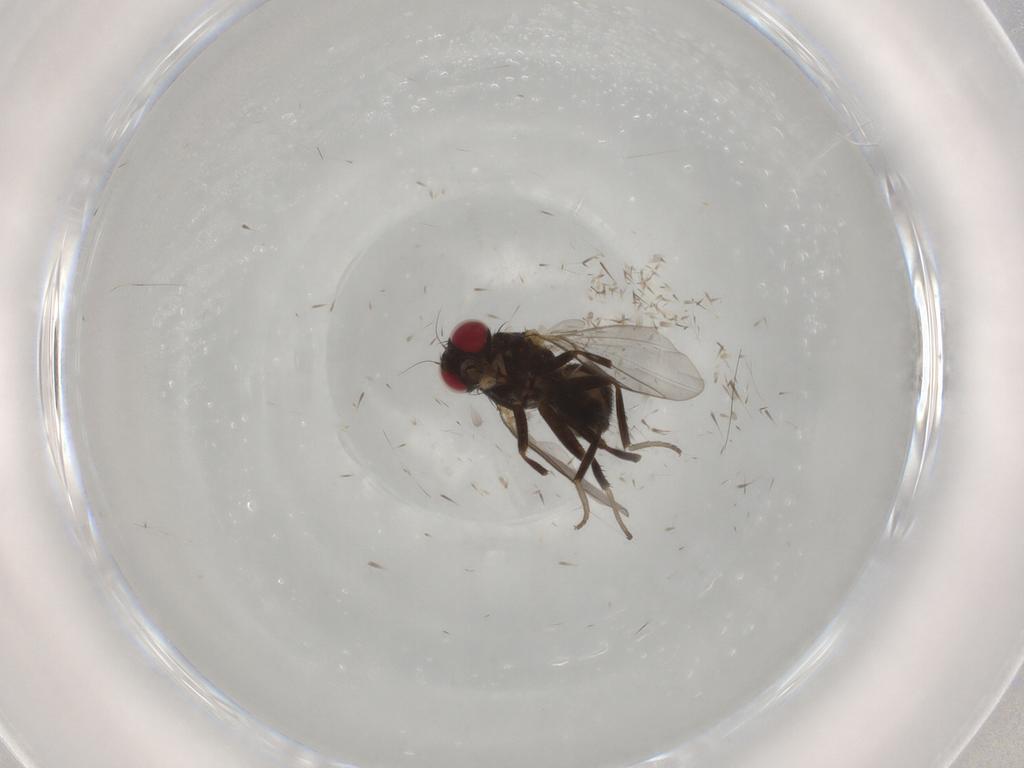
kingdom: Animalia
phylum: Arthropoda
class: Insecta
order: Diptera
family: Agromyzidae
